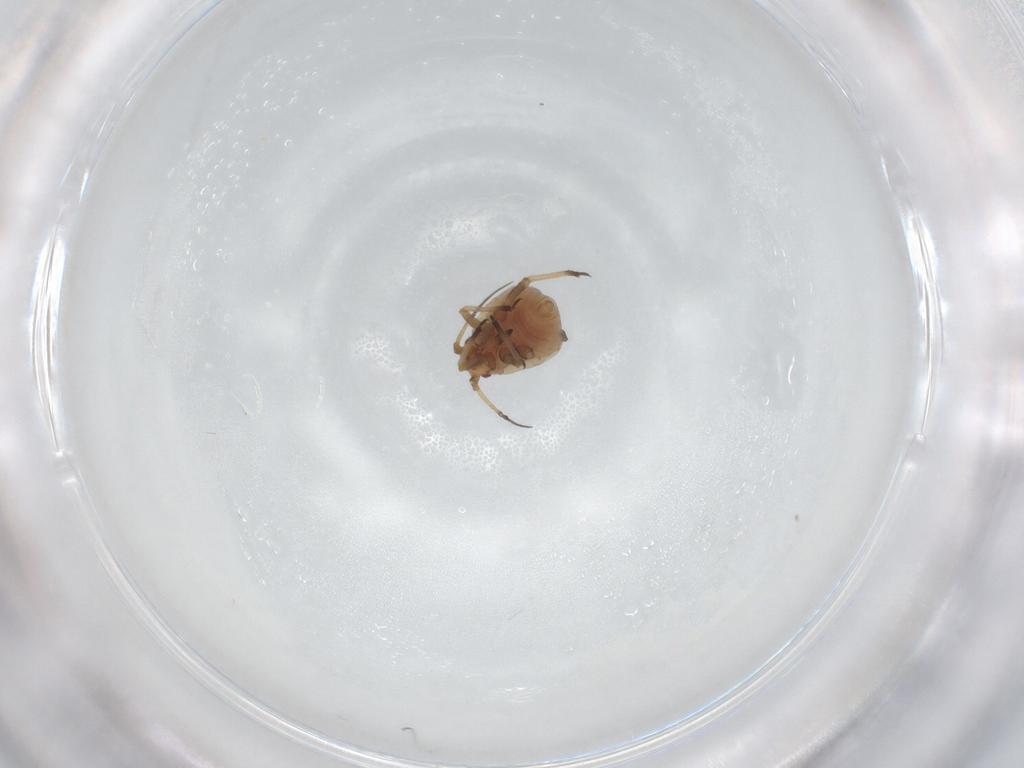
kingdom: Animalia
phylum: Arthropoda
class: Insecta
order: Hemiptera
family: Aphididae
